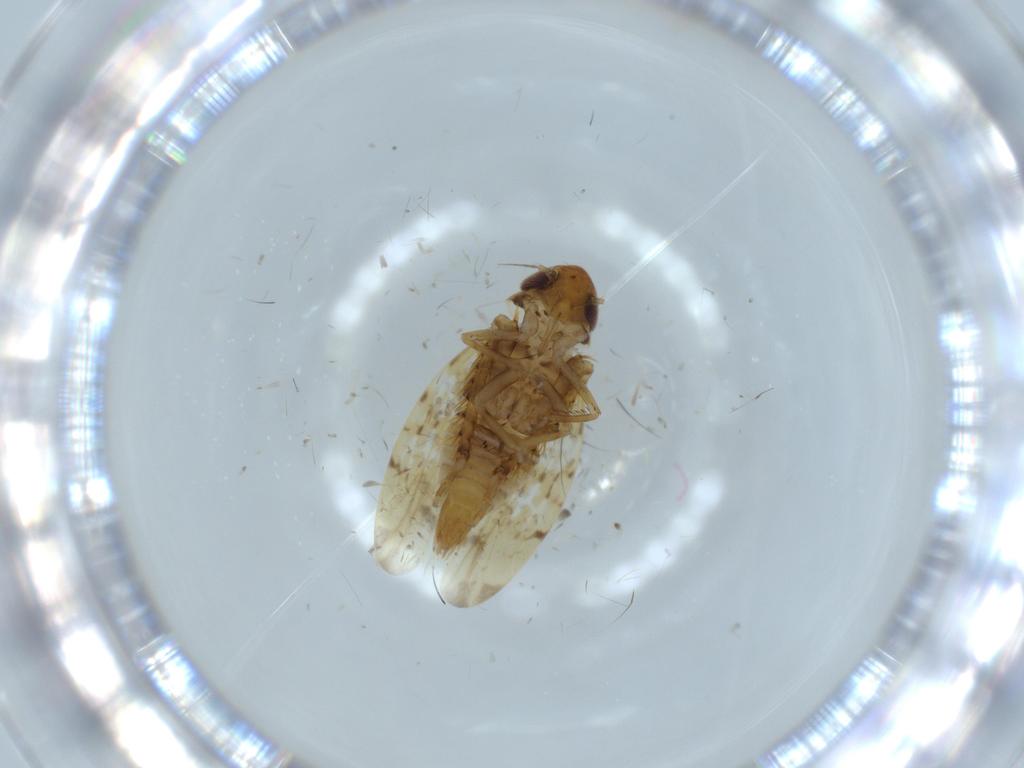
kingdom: Animalia
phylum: Arthropoda
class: Insecta
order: Hemiptera
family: Cicadellidae
